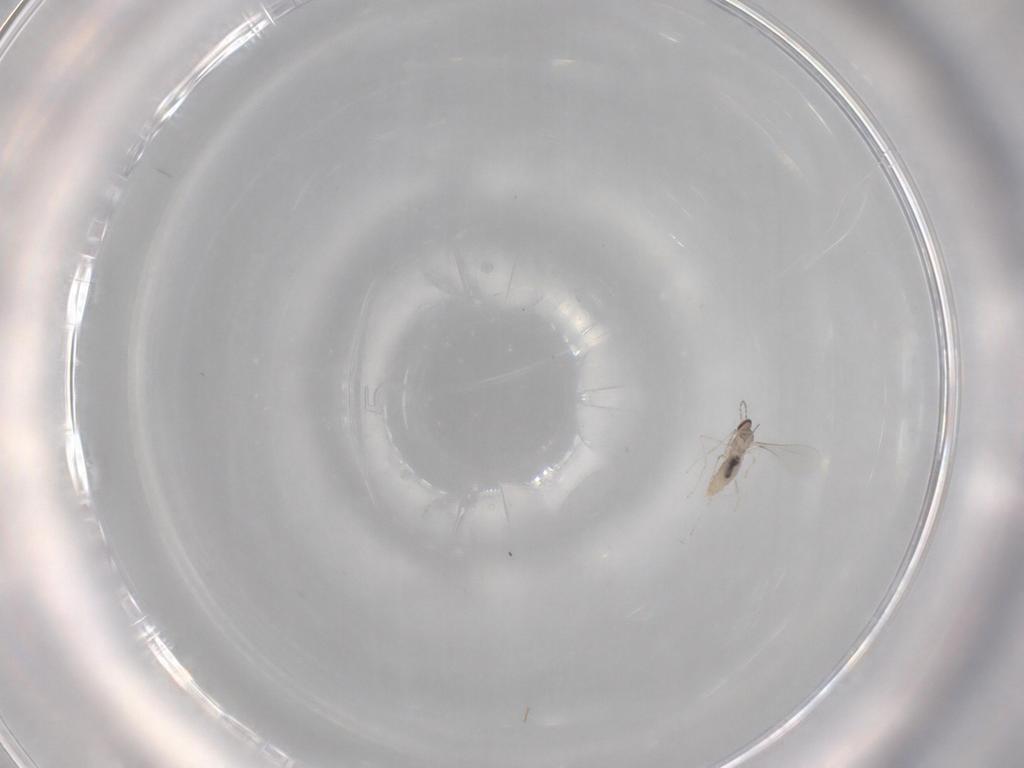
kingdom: Animalia
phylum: Arthropoda
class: Insecta
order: Diptera
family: Cecidomyiidae
